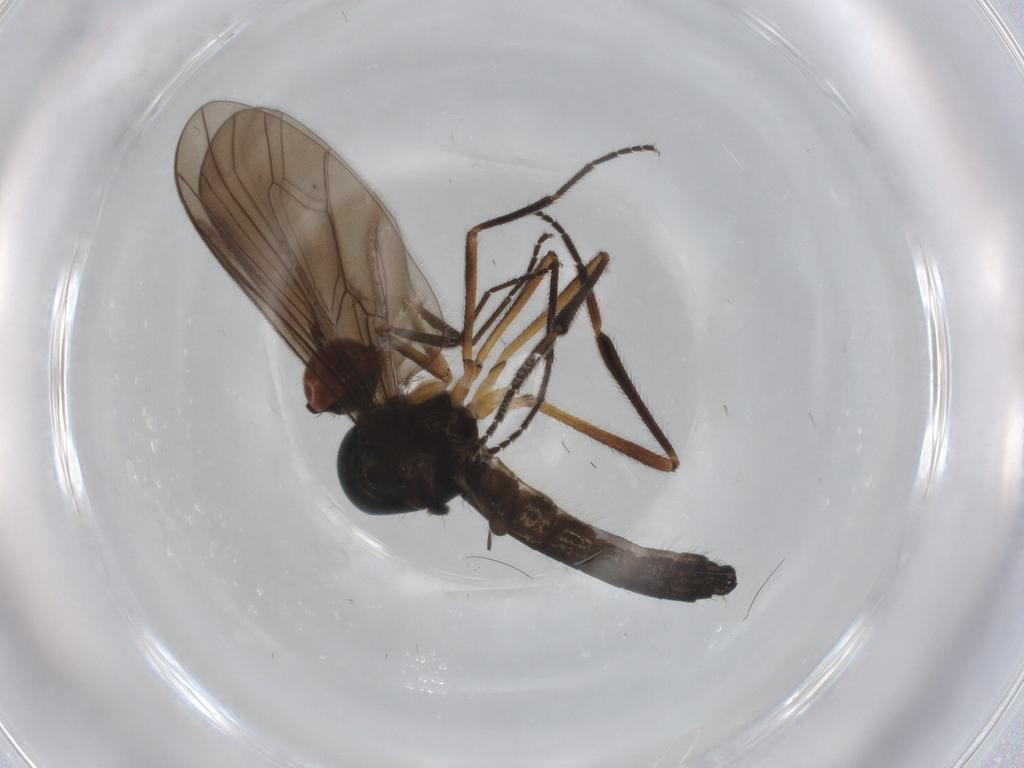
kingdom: Animalia
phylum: Arthropoda
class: Insecta
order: Diptera
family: Hybotidae
